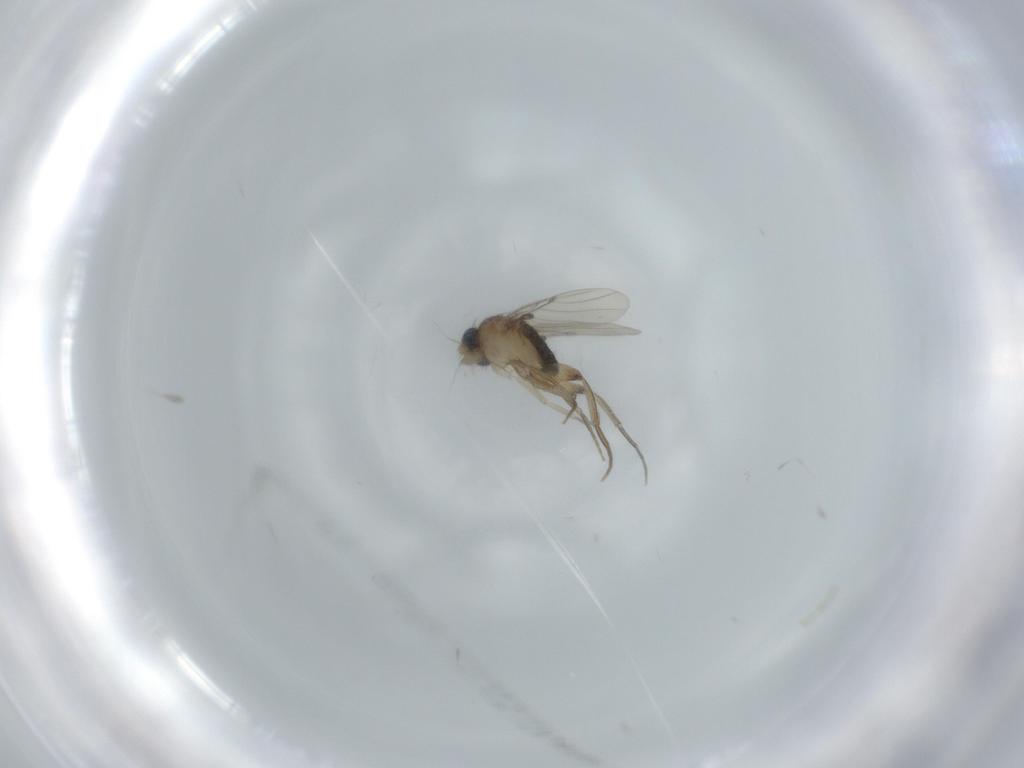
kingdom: Animalia
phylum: Arthropoda
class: Insecta
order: Diptera
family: Phoridae
